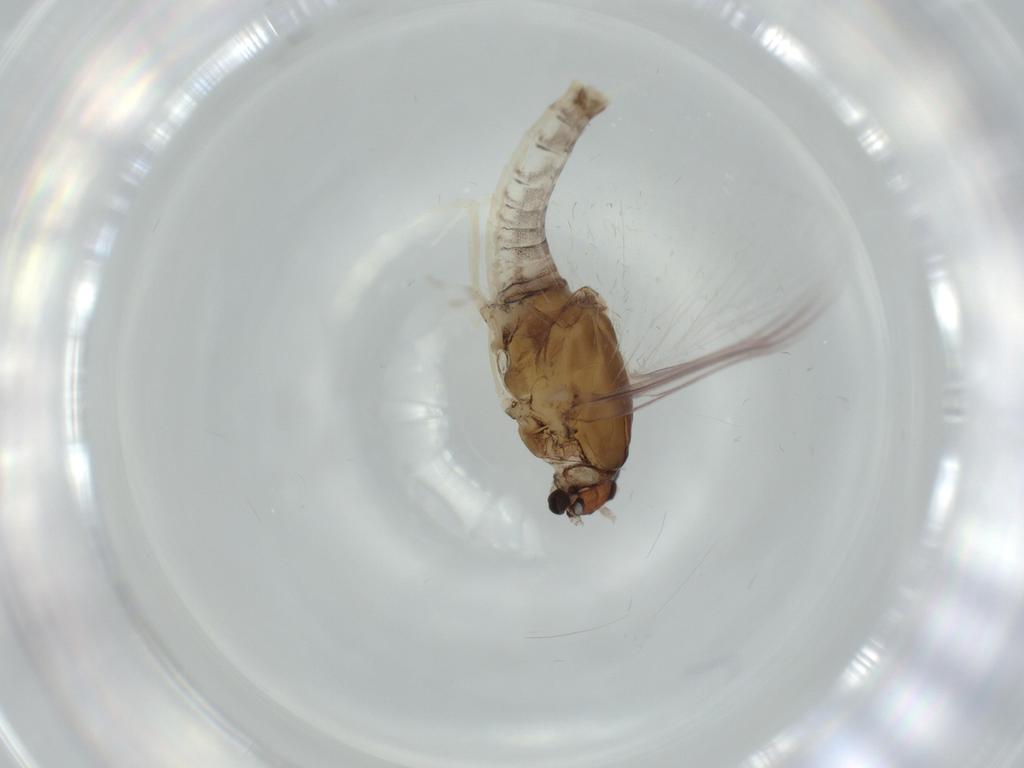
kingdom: Animalia
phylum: Arthropoda
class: Insecta
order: Ephemeroptera
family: Caenidae
